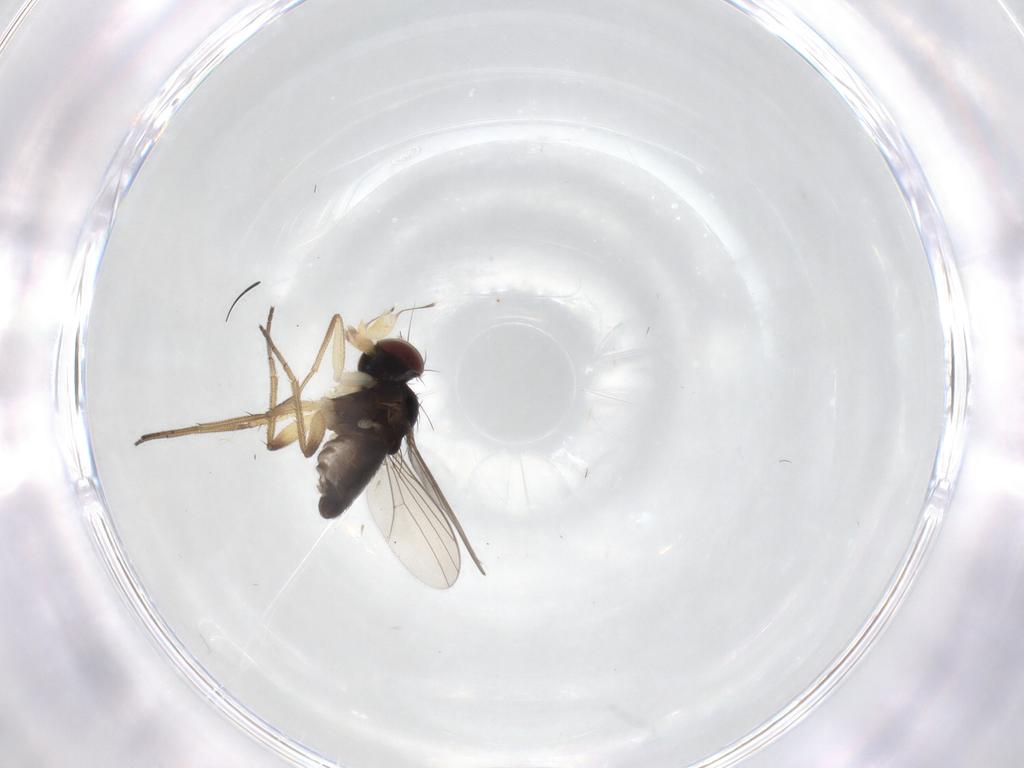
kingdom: Animalia
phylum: Arthropoda
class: Insecta
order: Diptera
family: Dolichopodidae
